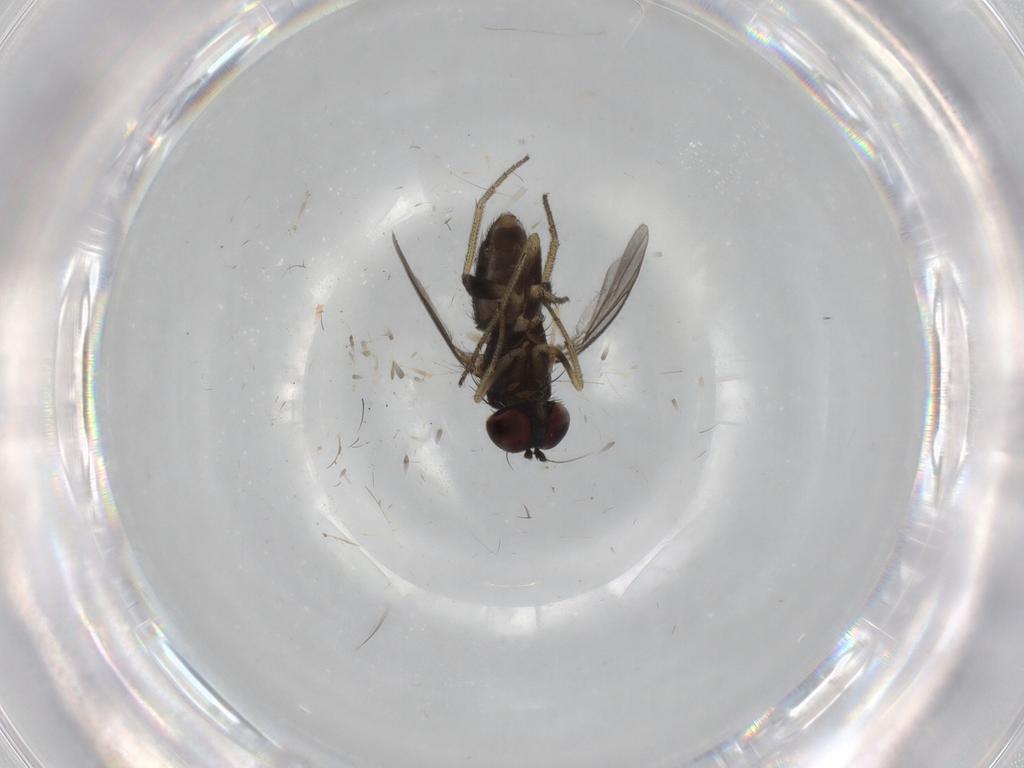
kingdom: Animalia
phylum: Arthropoda
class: Insecta
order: Diptera
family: Chironomidae
